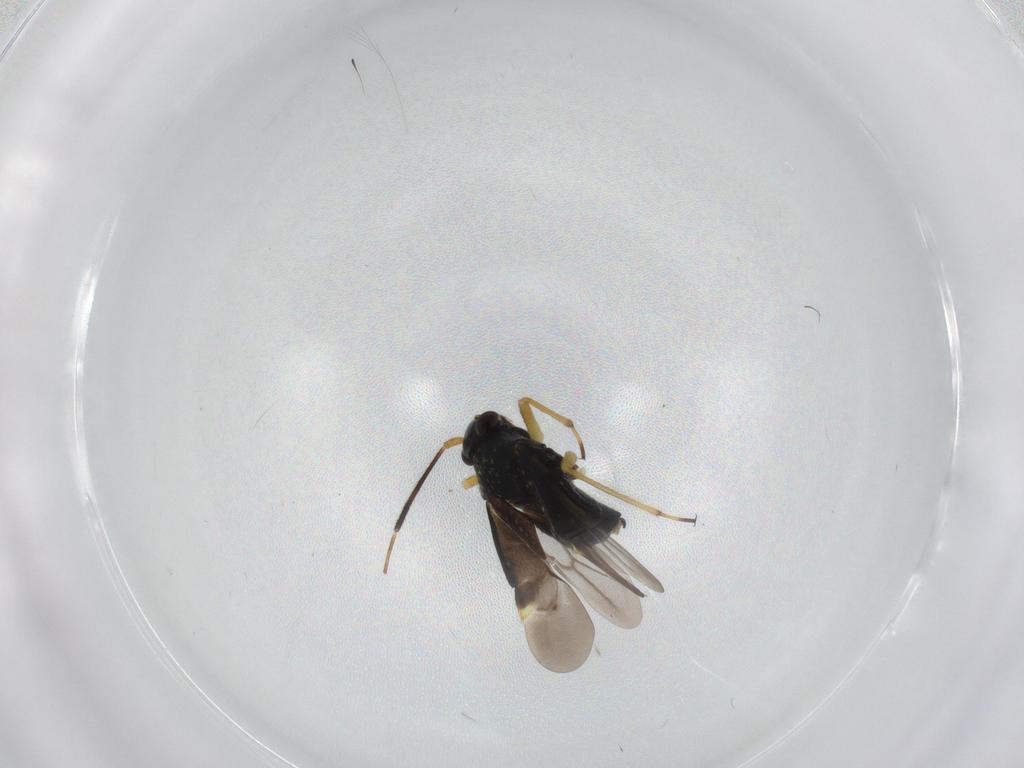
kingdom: Animalia
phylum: Arthropoda
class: Insecta
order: Hemiptera
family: Miridae
